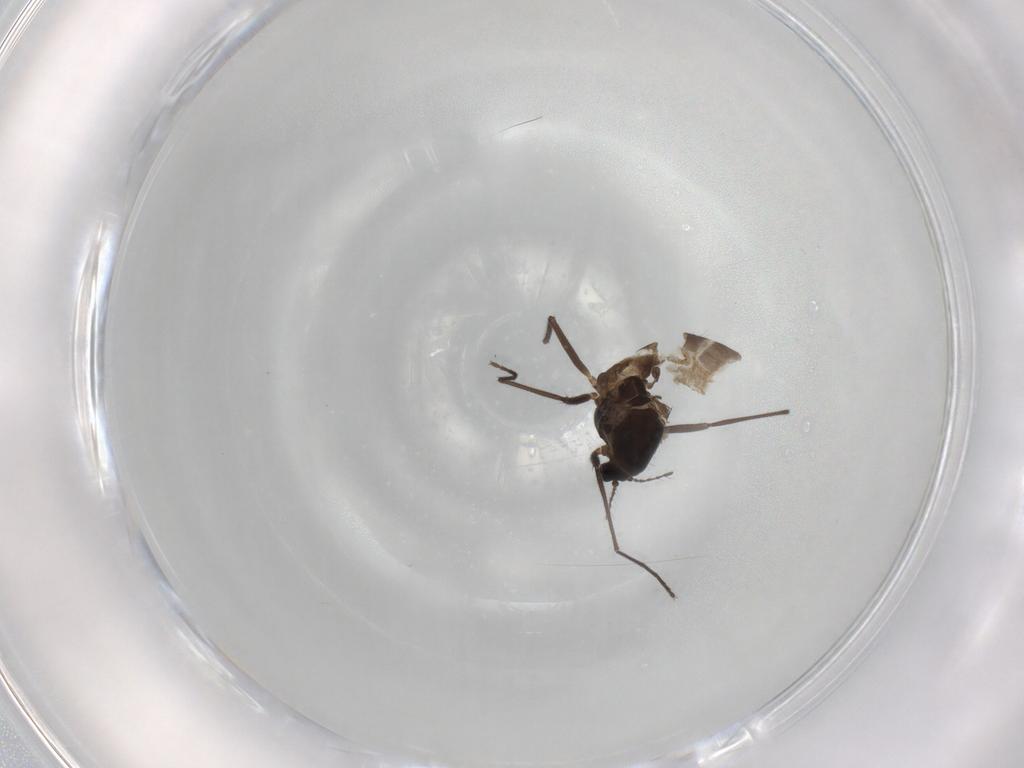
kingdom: Animalia
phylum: Arthropoda
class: Insecta
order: Diptera
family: Chironomidae
